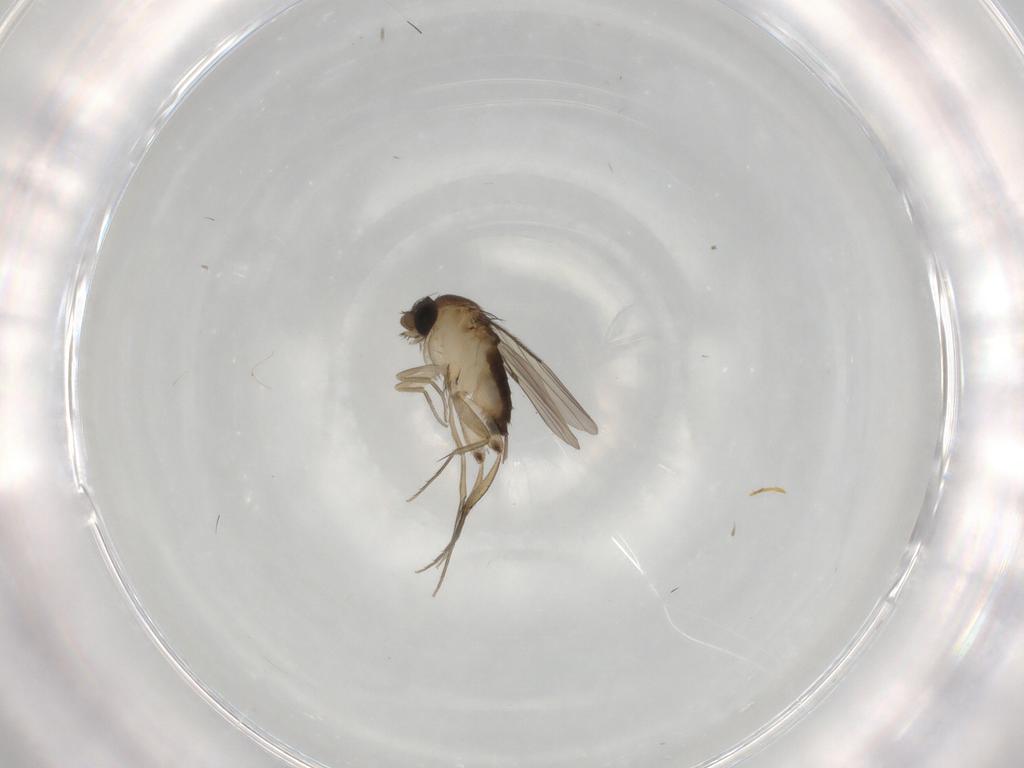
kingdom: Animalia
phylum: Arthropoda
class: Insecta
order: Diptera
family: Phoridae
